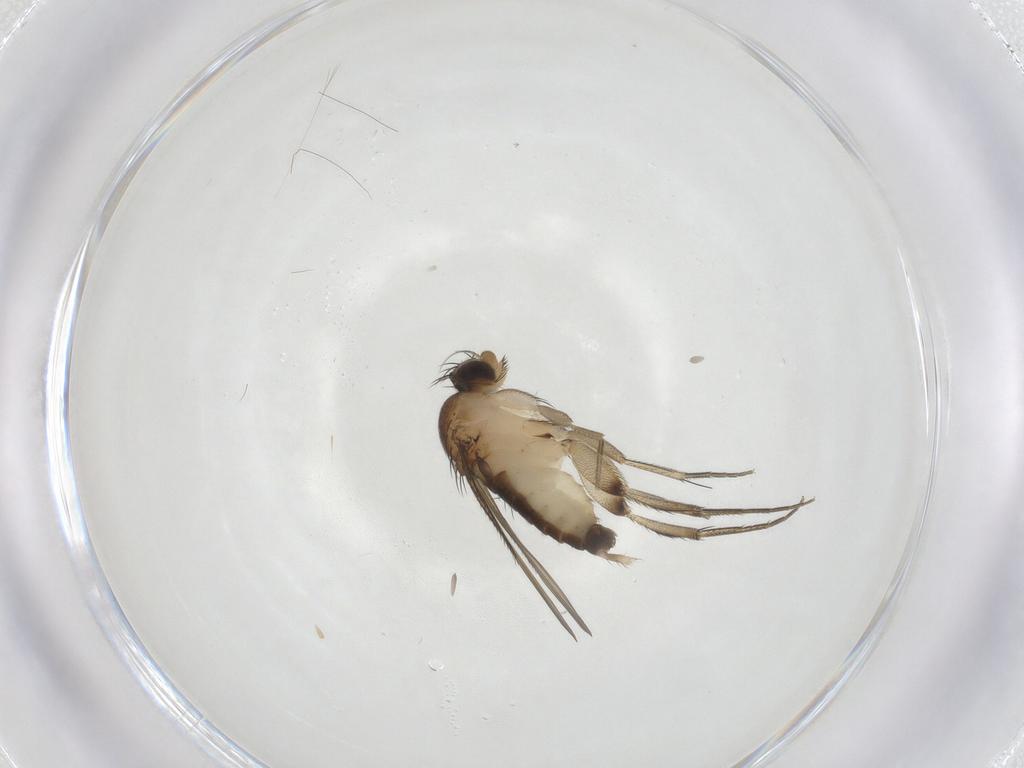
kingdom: Animalia
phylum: Arthropoda
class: Insecta
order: Diptera
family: Phoridae
